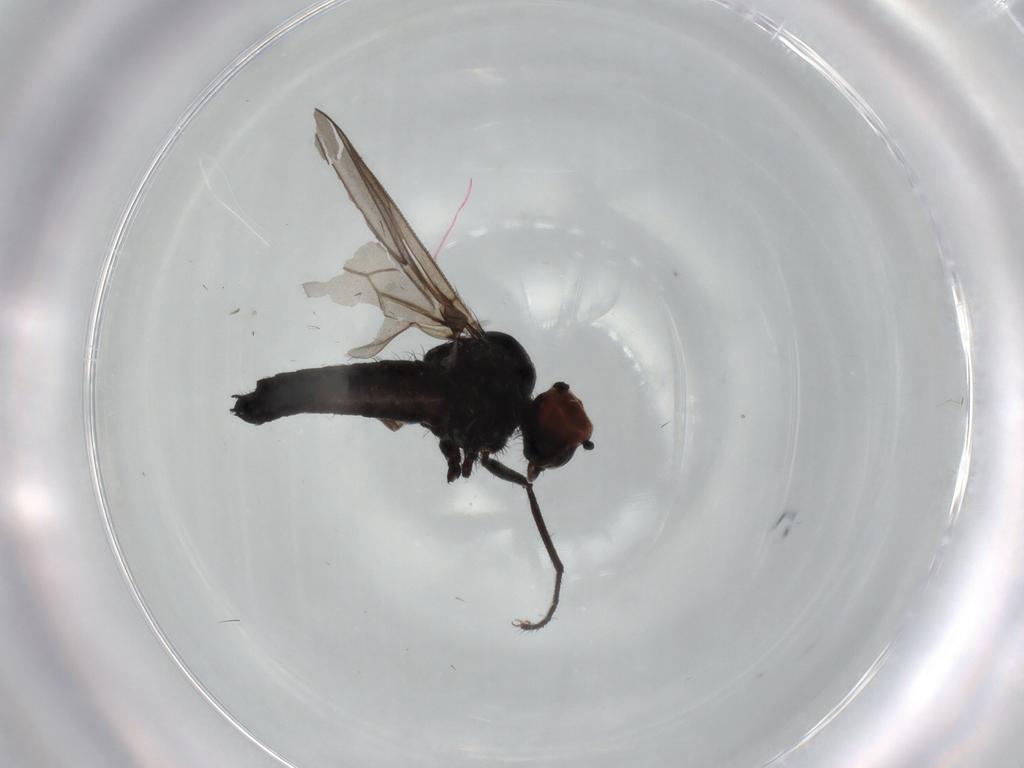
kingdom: Animalia
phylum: Arthropoda
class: Insecta
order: Diptera
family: Hybotidae
